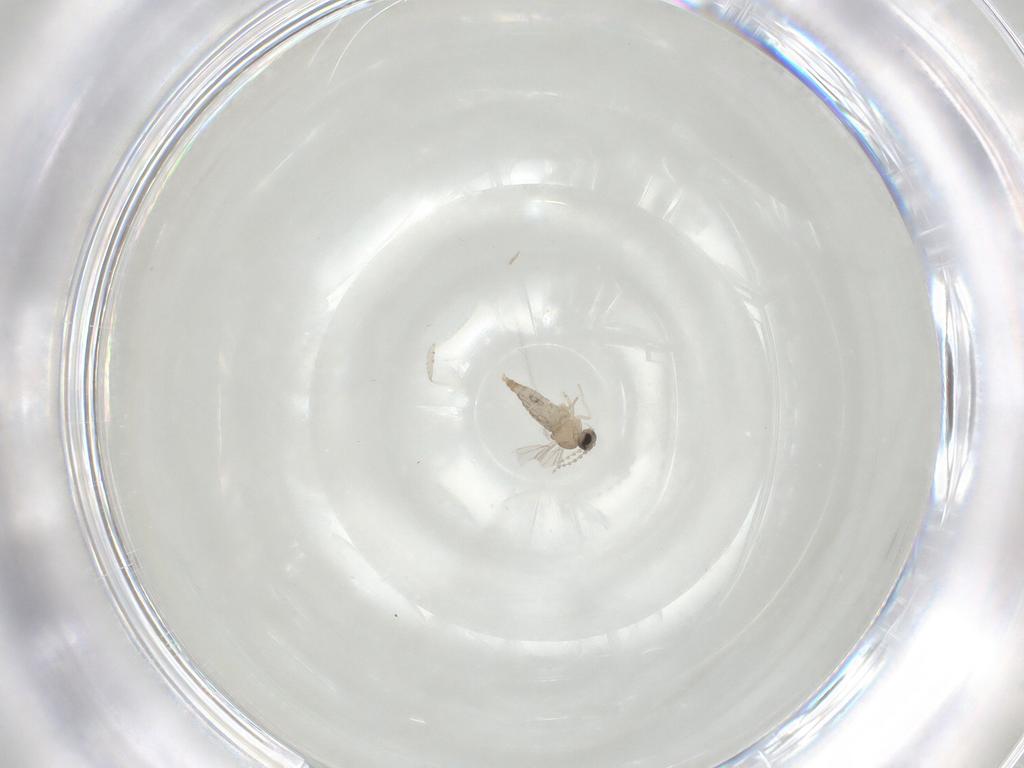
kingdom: Animalia
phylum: Arthropoda
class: Insecta
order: Diptera
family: Cecidomyiidae
